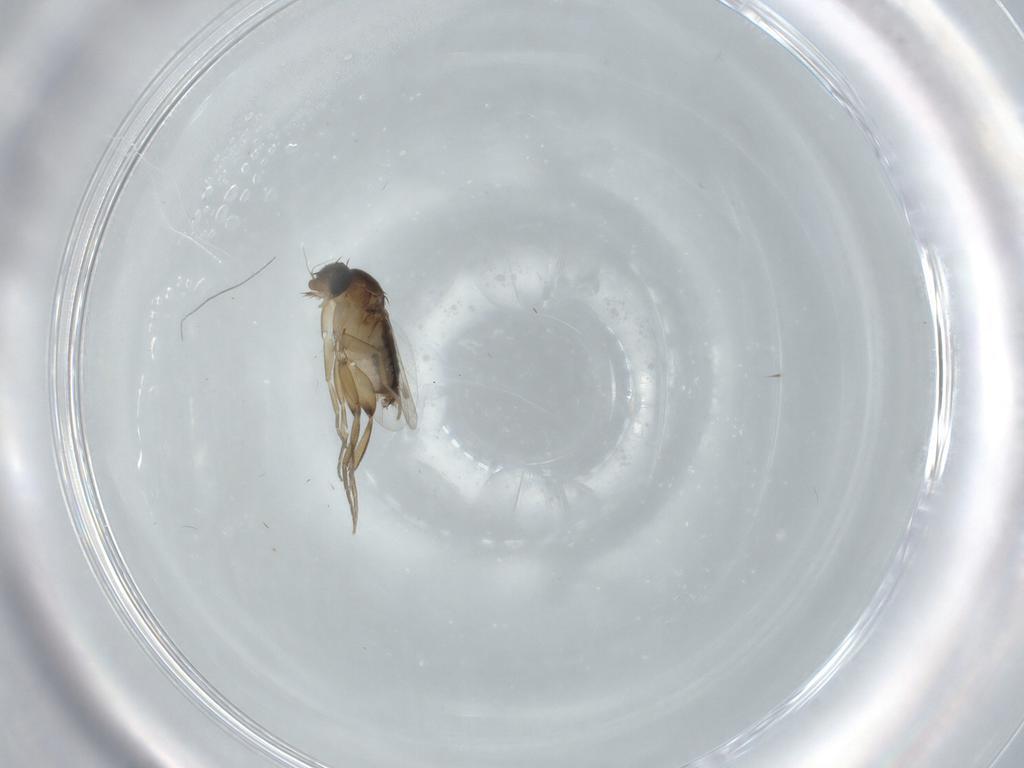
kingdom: Animalia
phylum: Arthropoda
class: Insecta
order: Diptera
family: Phoridae
